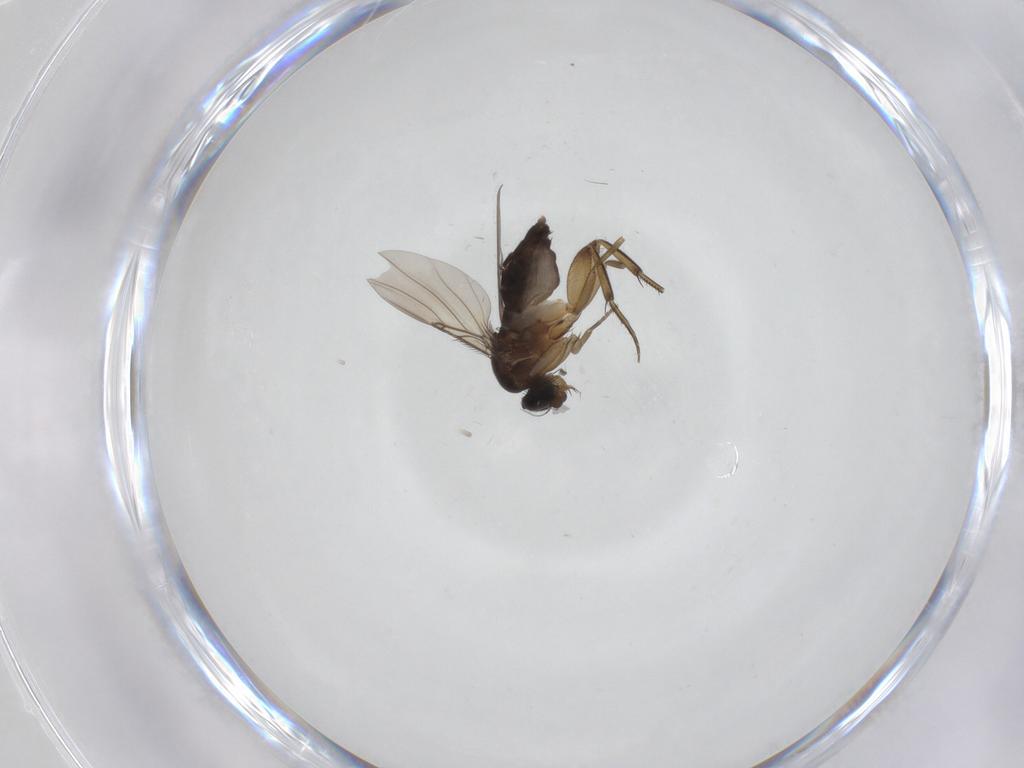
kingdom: Animalia
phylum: Arthropoda
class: Insecta
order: Diptera
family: Phoridae
